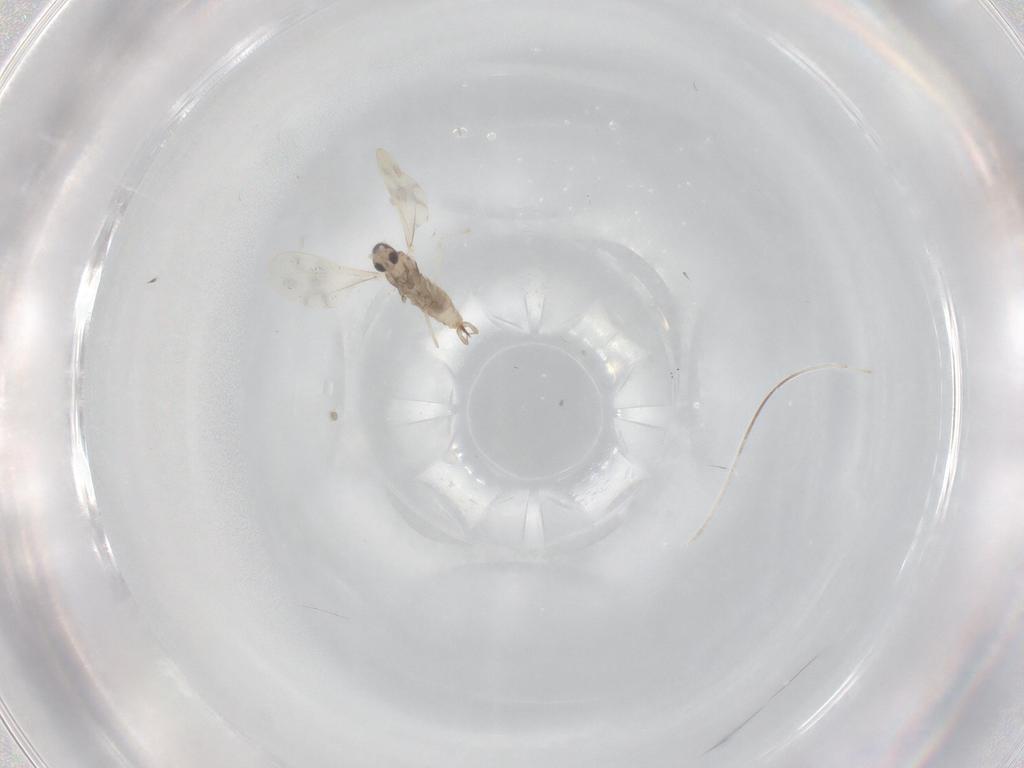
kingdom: Animalia
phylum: Arthropoda
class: Insecta
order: Diptera
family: Cecidomyiidae
